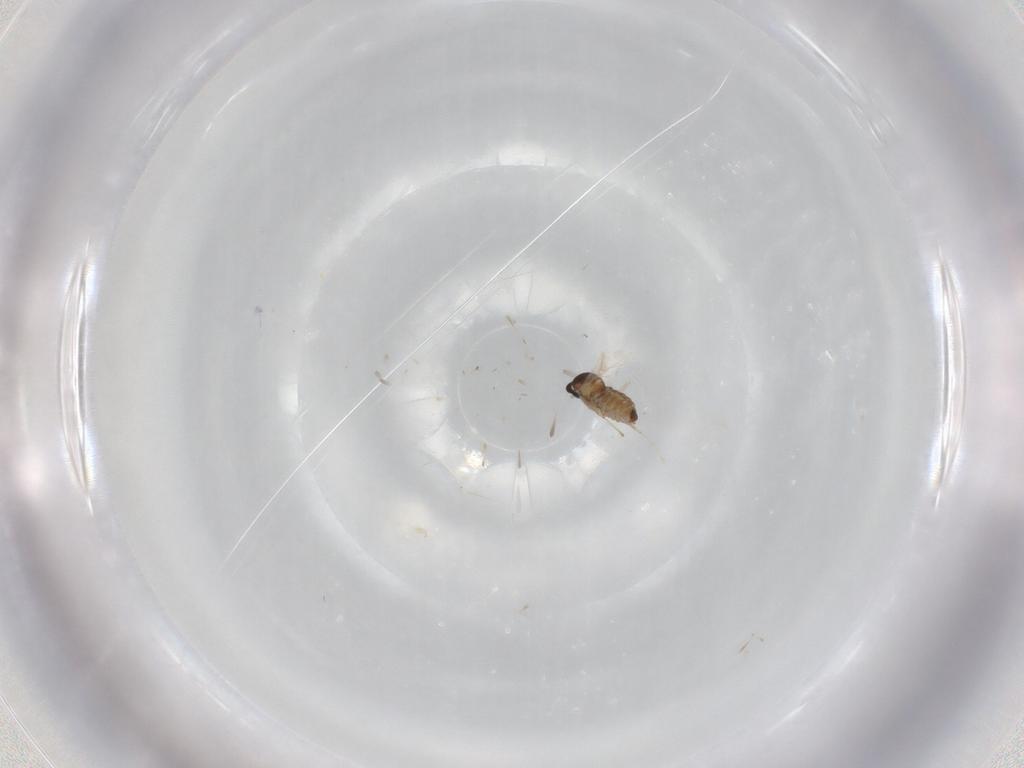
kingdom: Animalia
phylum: Arthropoda
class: Insecta
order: Diptera
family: Cecidomyiidae
